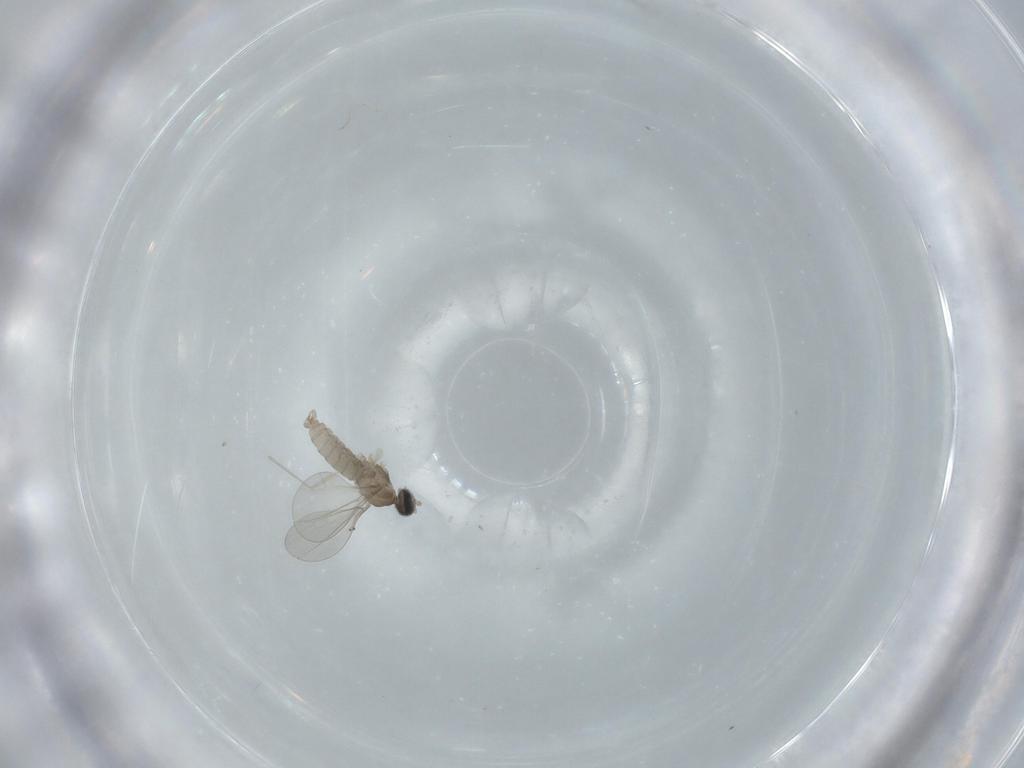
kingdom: Animalia
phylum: Arthropoda
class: Insecta
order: Diptera
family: Cecidomyiidae
